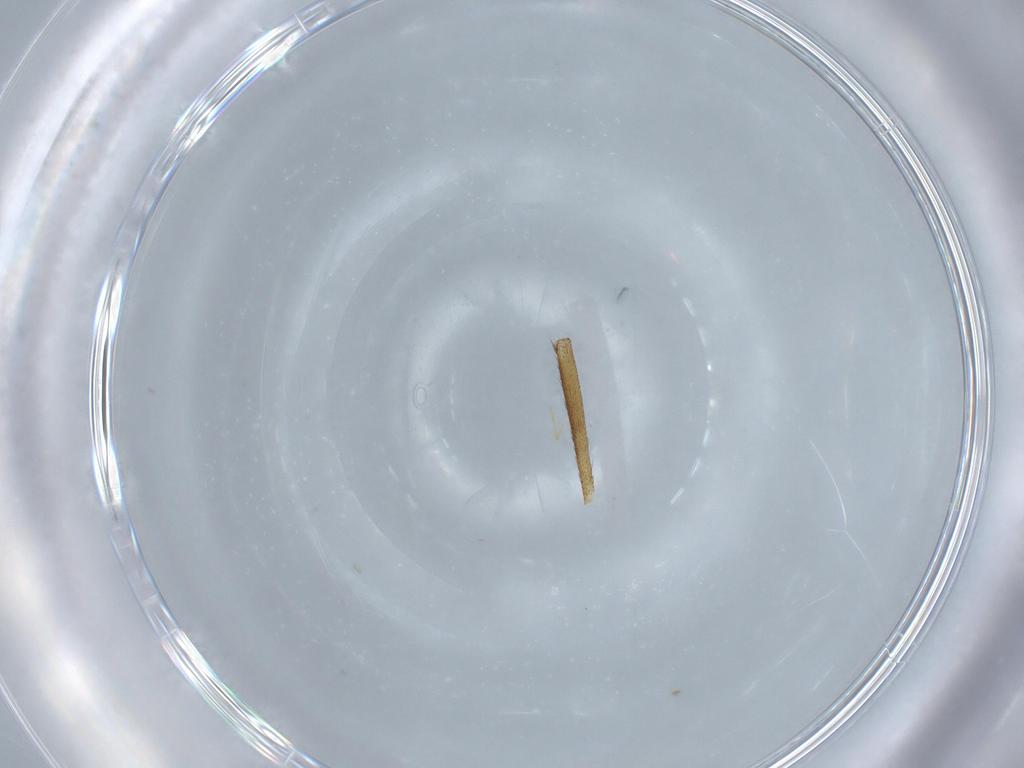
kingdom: Animalia
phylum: Arthropoda
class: Insecta
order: Diptera
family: Limoniidae
